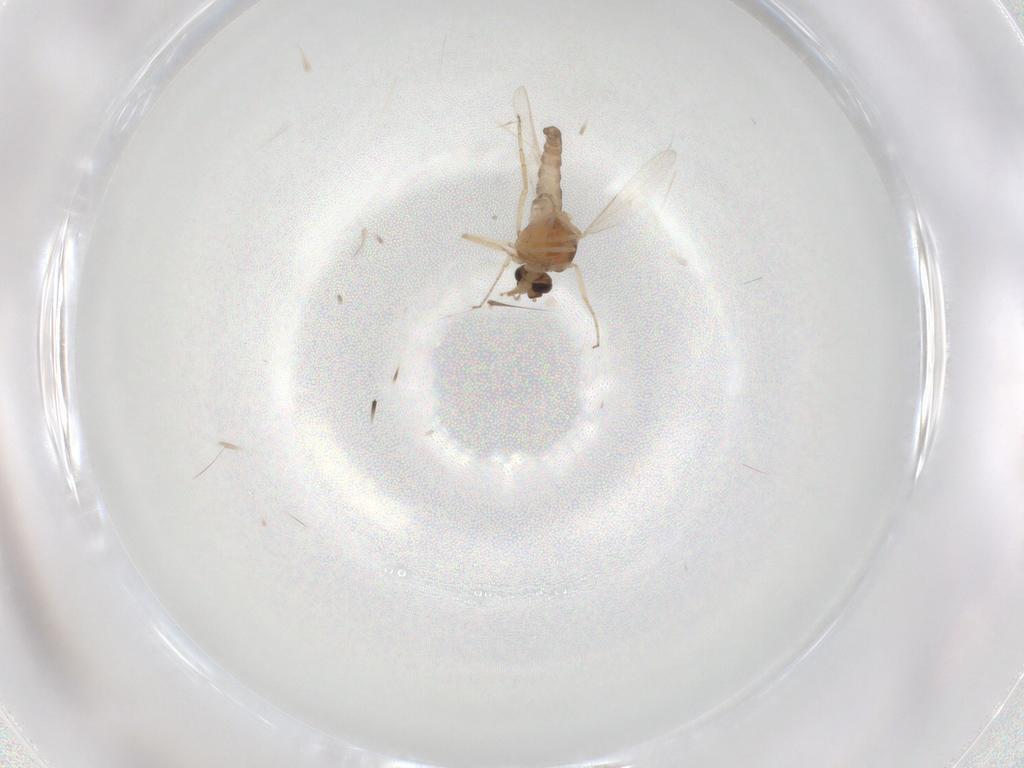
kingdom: Animalia
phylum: Arthropoda
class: Insecta
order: Diptera
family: Ceratopogonidae
